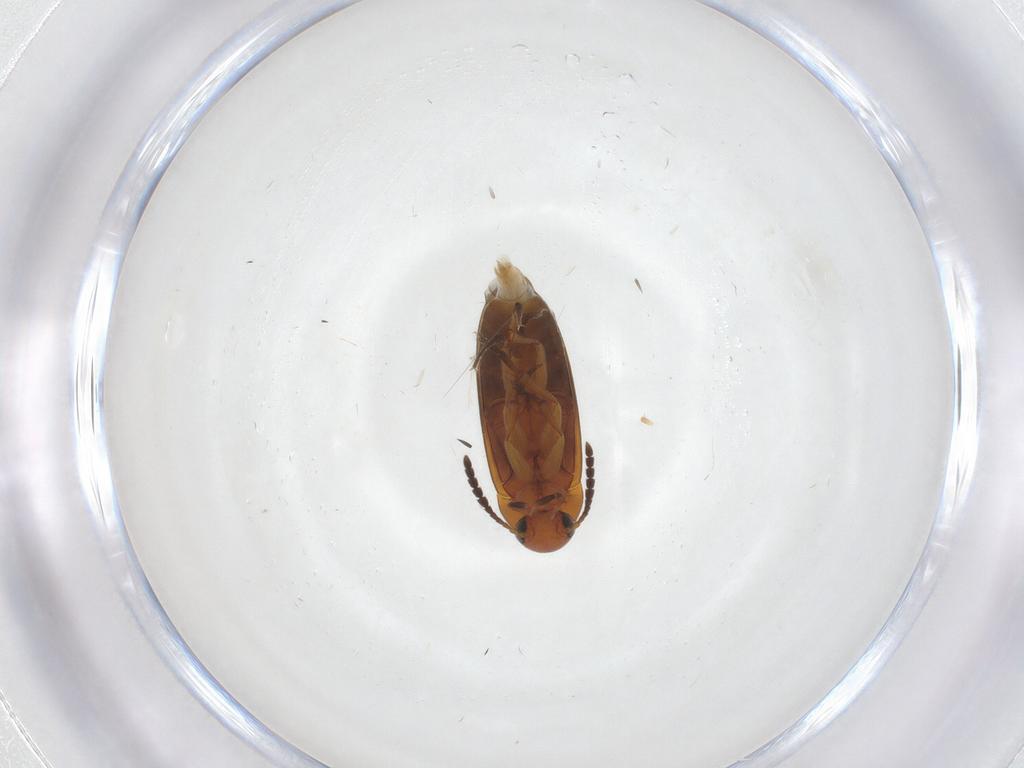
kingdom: Animalia
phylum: Arthropoda
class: Insecta
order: Coleoptera
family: Scraptiidae
